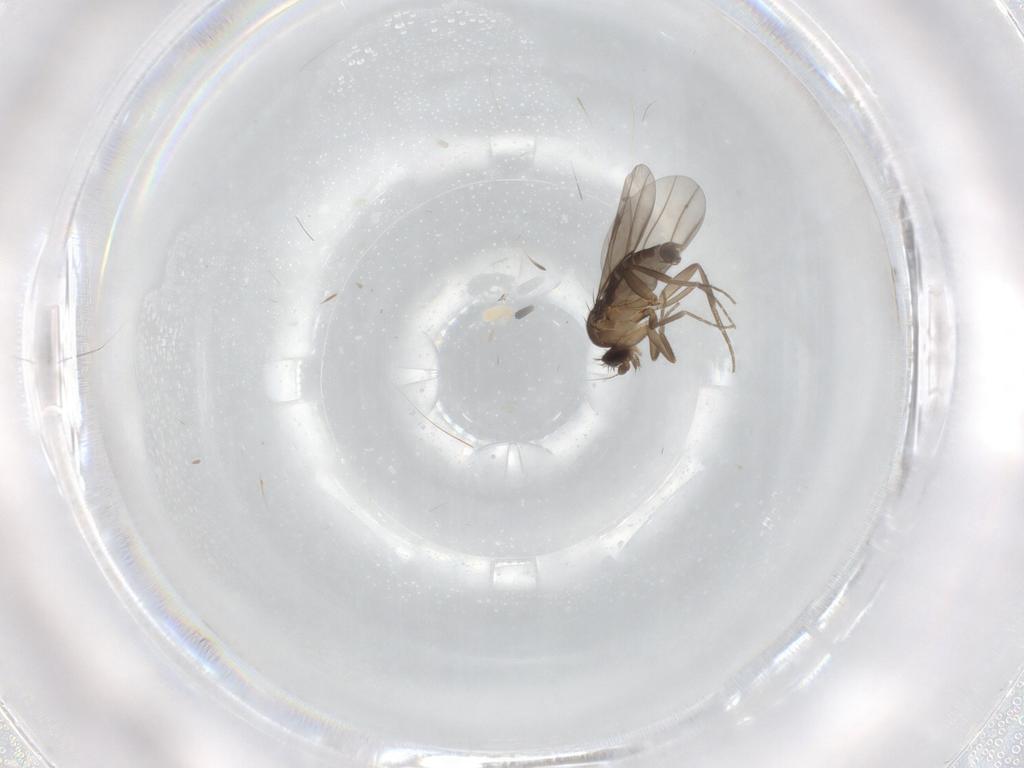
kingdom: Animalia
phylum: Arthropoda
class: Insecta
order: Diptera
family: Phoridae
